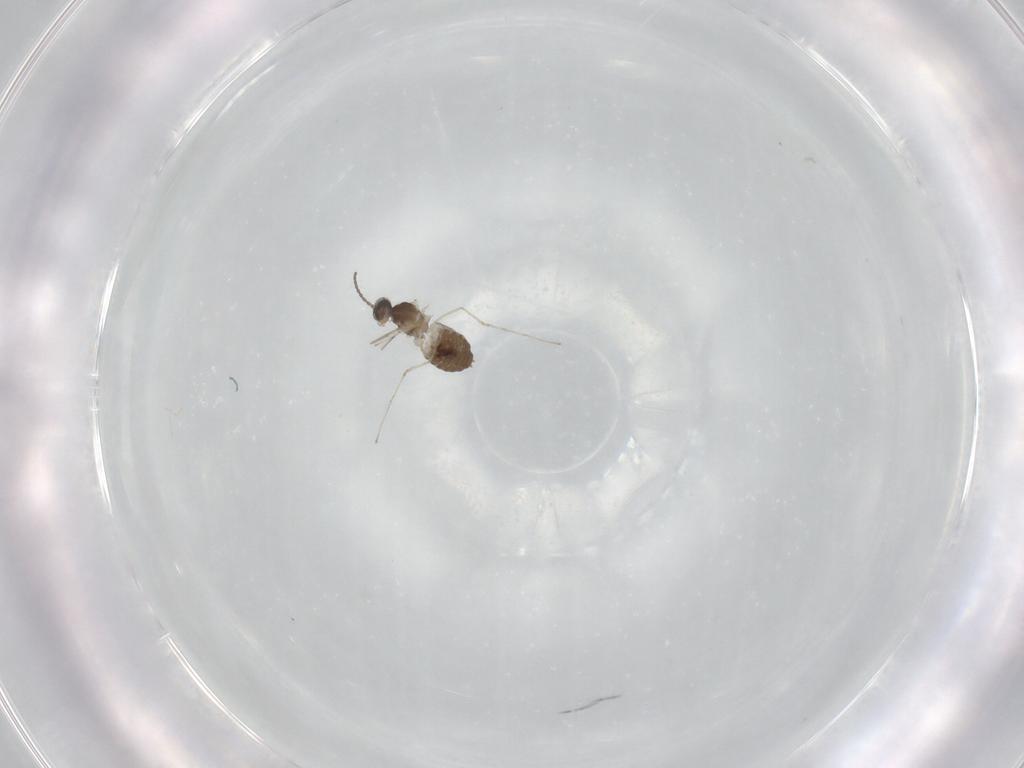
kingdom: Animalia
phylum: Arthropoda
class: Insecta
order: Diptera
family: Cecidomyiidae
